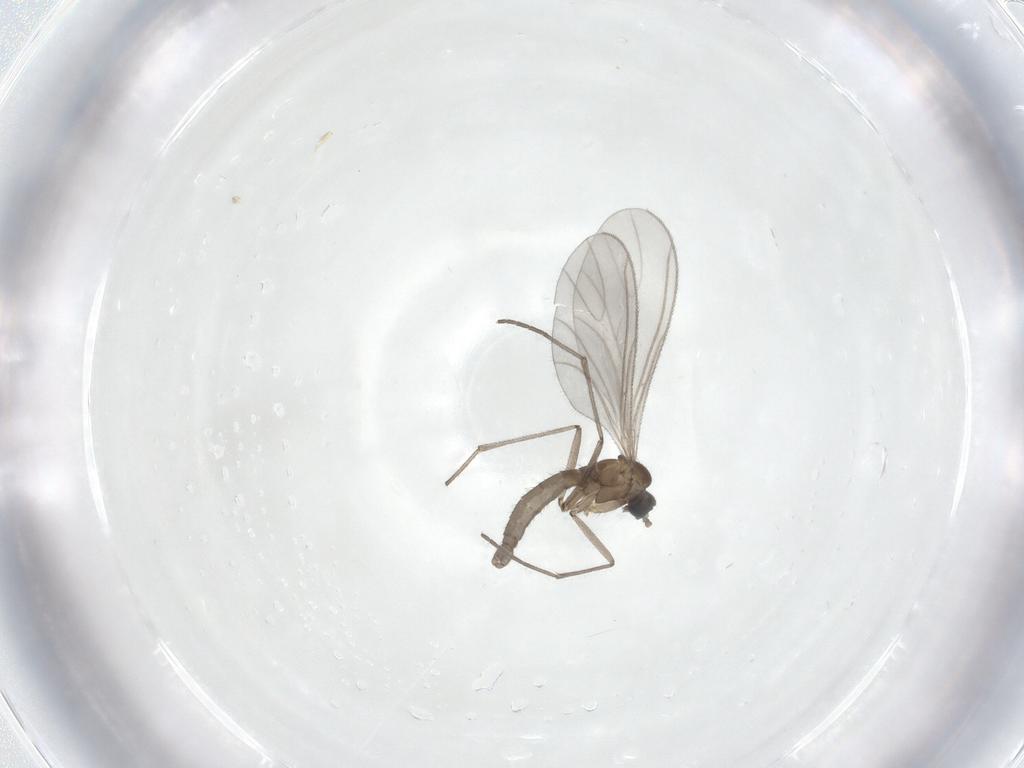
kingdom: Animalia
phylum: Arthropoda
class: Insecta
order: Diptera
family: Sciaridae
